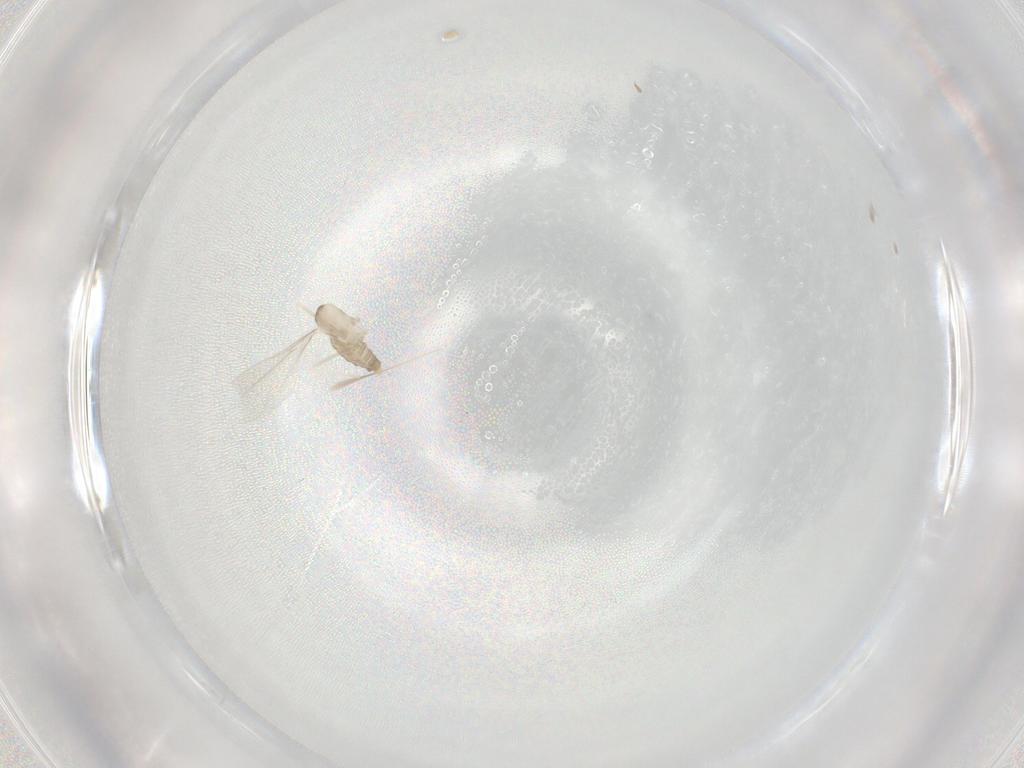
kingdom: Animalia
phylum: Arthropoda
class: Insecta
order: Diptera
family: Cecidomyiidae
